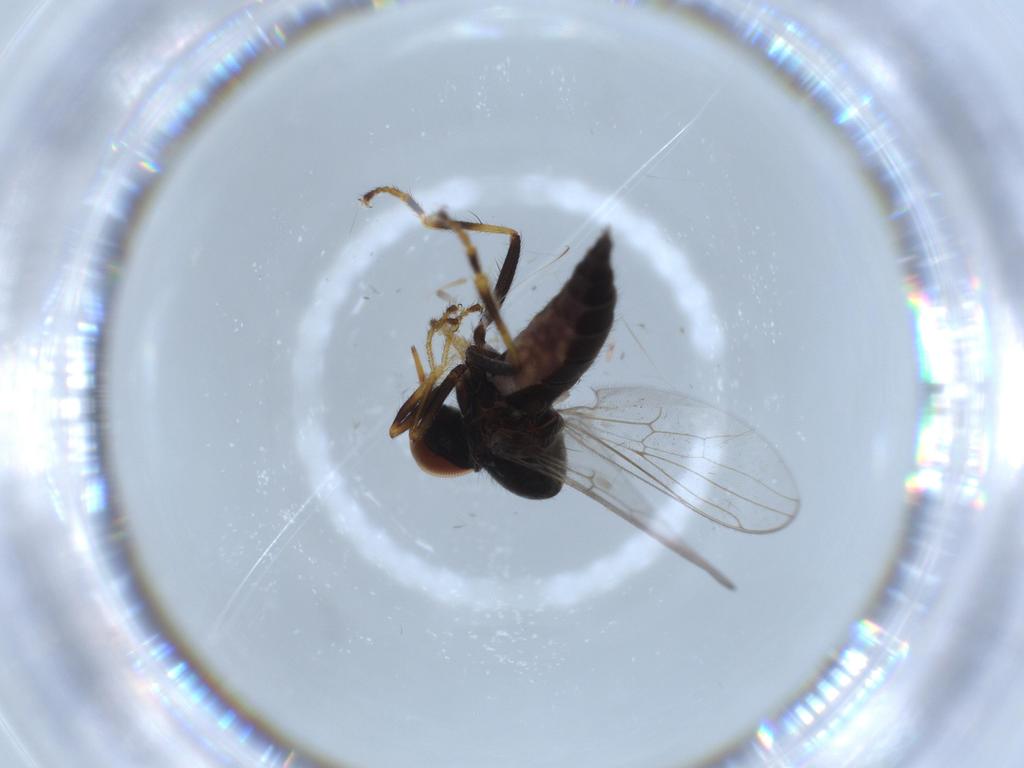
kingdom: Animalia
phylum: Arthropoda
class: Insecta
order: Diptera
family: Hybotidae
